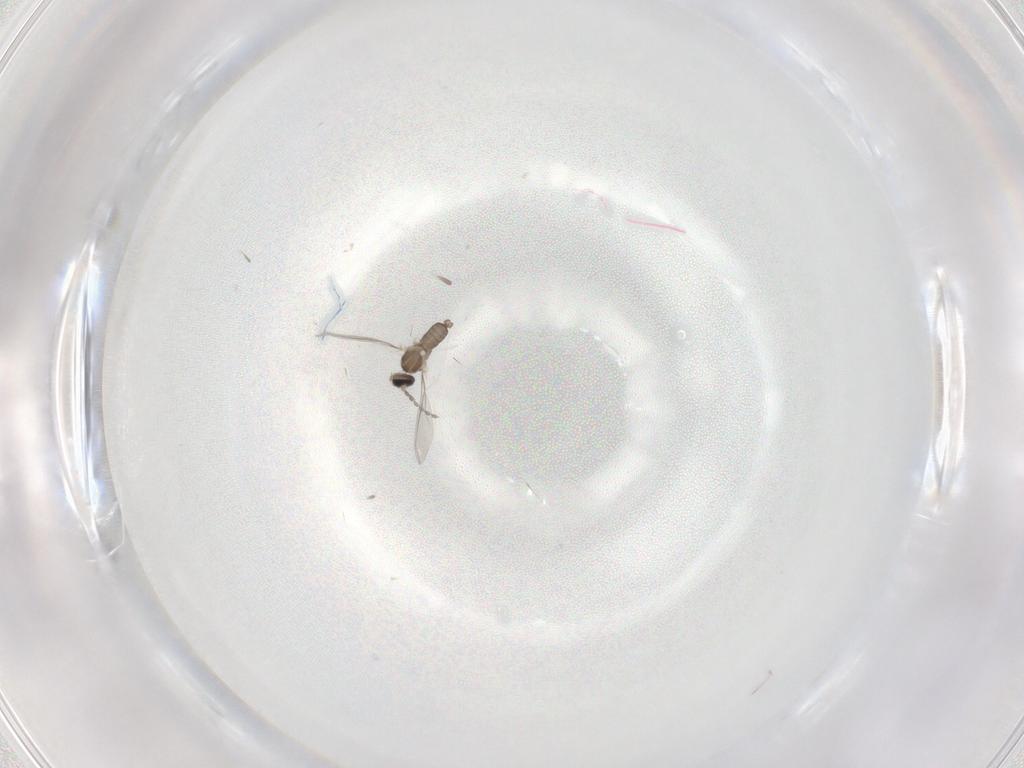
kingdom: Animalia
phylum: Arthropoda
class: Insecta
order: Diptera
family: Cecidomyiidae
